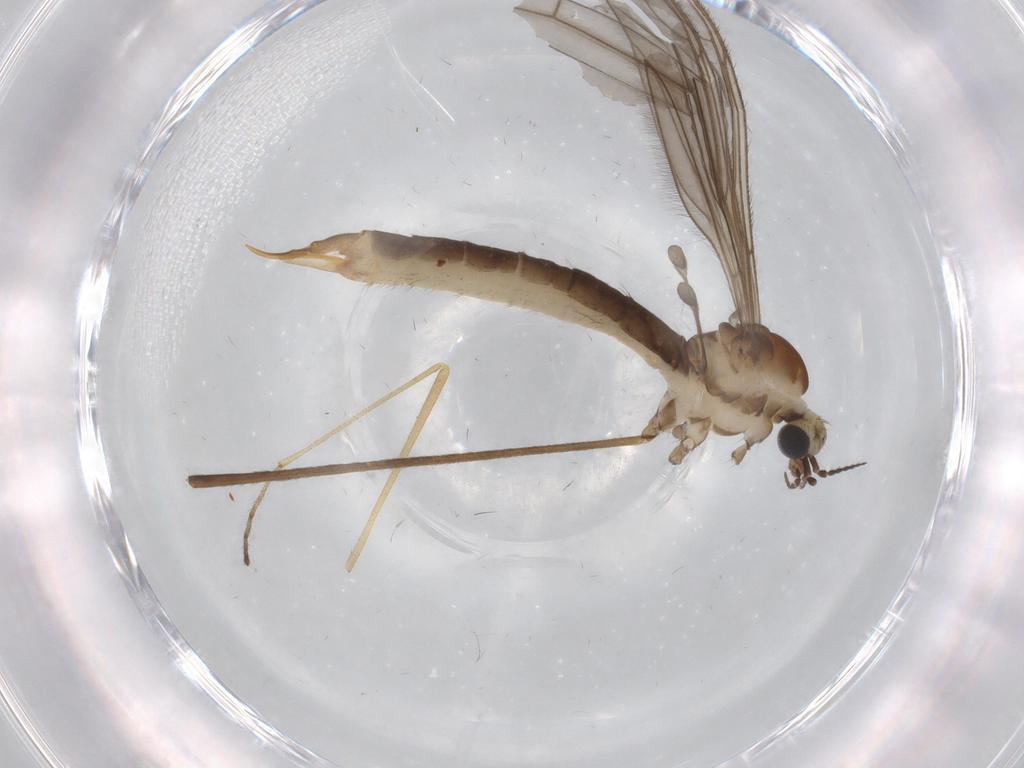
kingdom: Animalia
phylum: Arthropoda
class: Insecta
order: Diptera
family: Limoniidae
